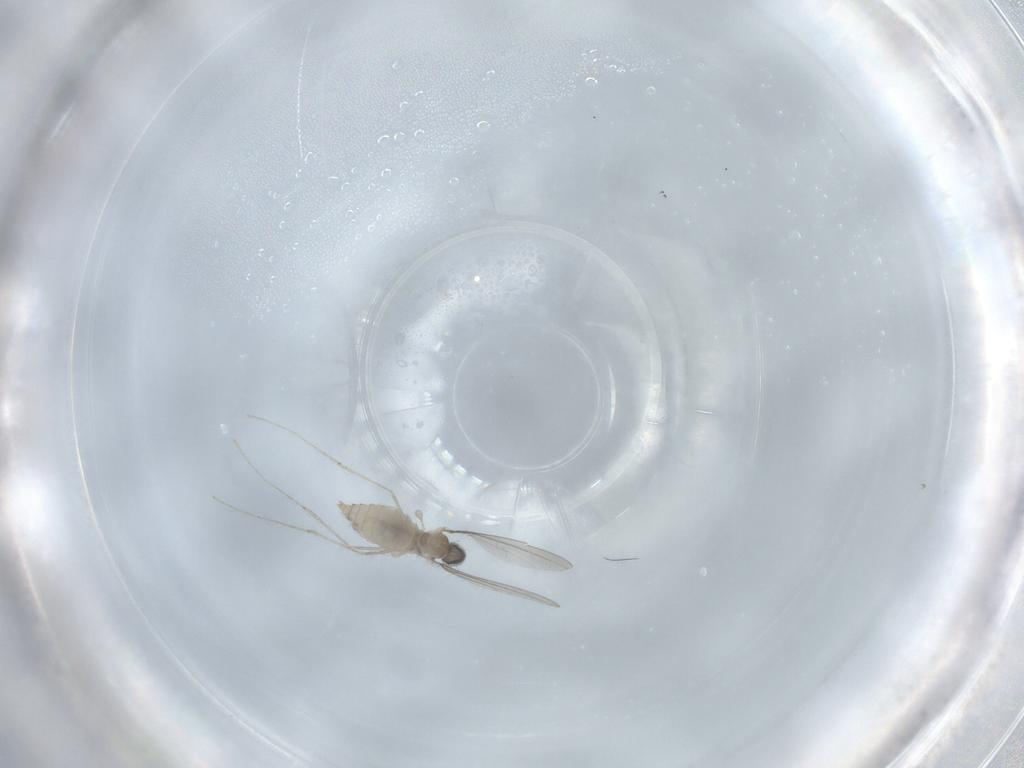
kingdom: Animalia
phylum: Arthropoda
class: Insecta
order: Diptera
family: Cecidomyiidae
